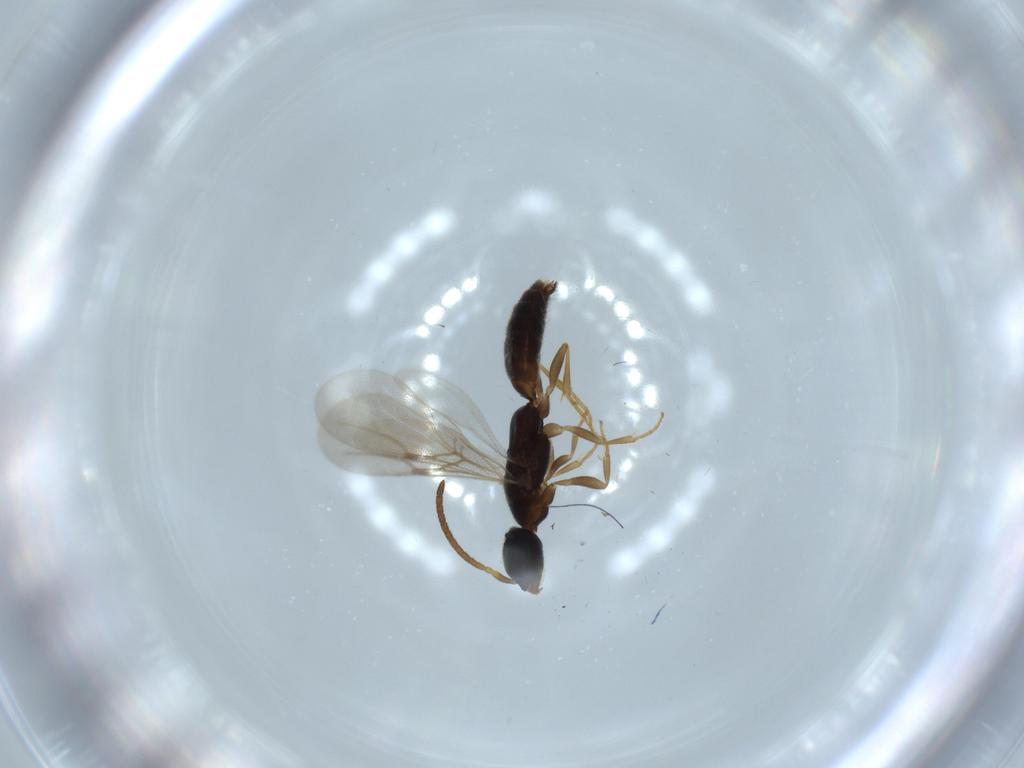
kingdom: Animalia
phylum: Arthropoda
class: Insecta
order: Hymenoptera
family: Bethylidae
